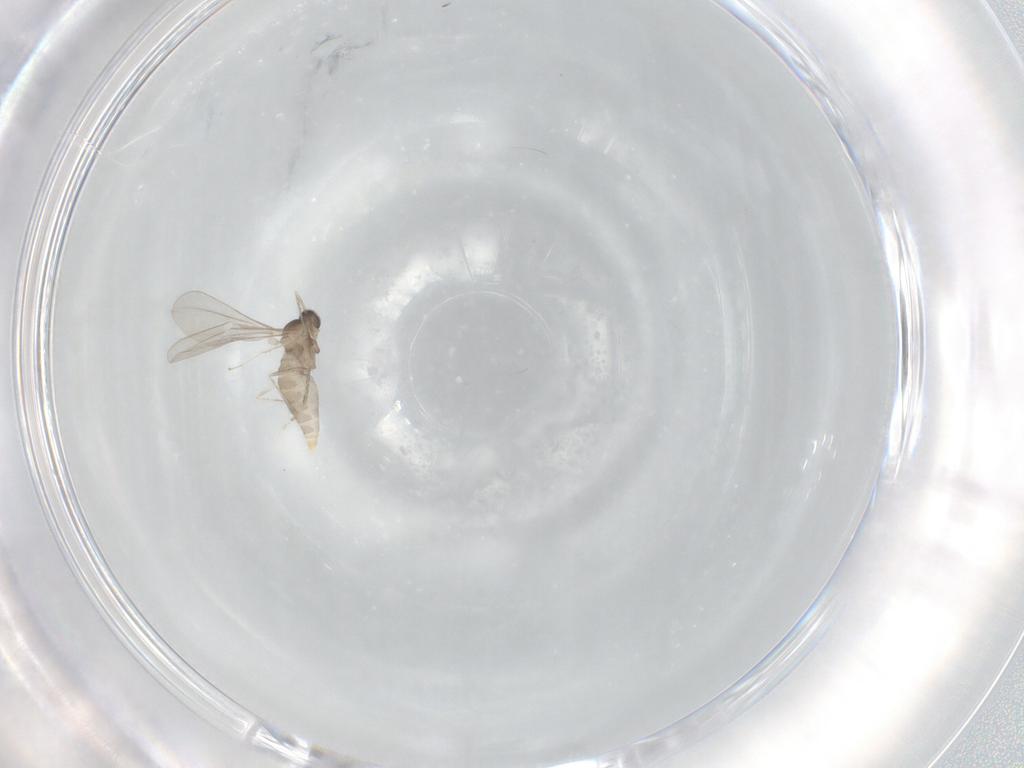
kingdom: Animalia
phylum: Arthropoda
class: Insecta
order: Diptera
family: Cecidomyiidae
